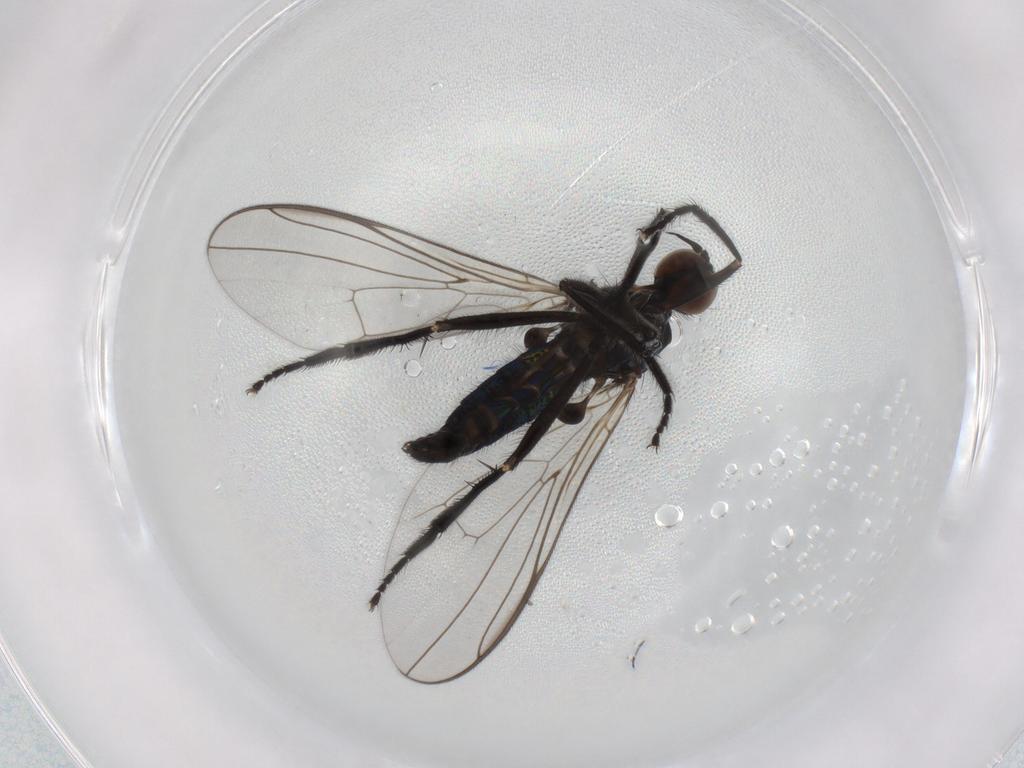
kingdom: Animalia
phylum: Arthropoda
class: Insecta
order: Diptera
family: Empididae
